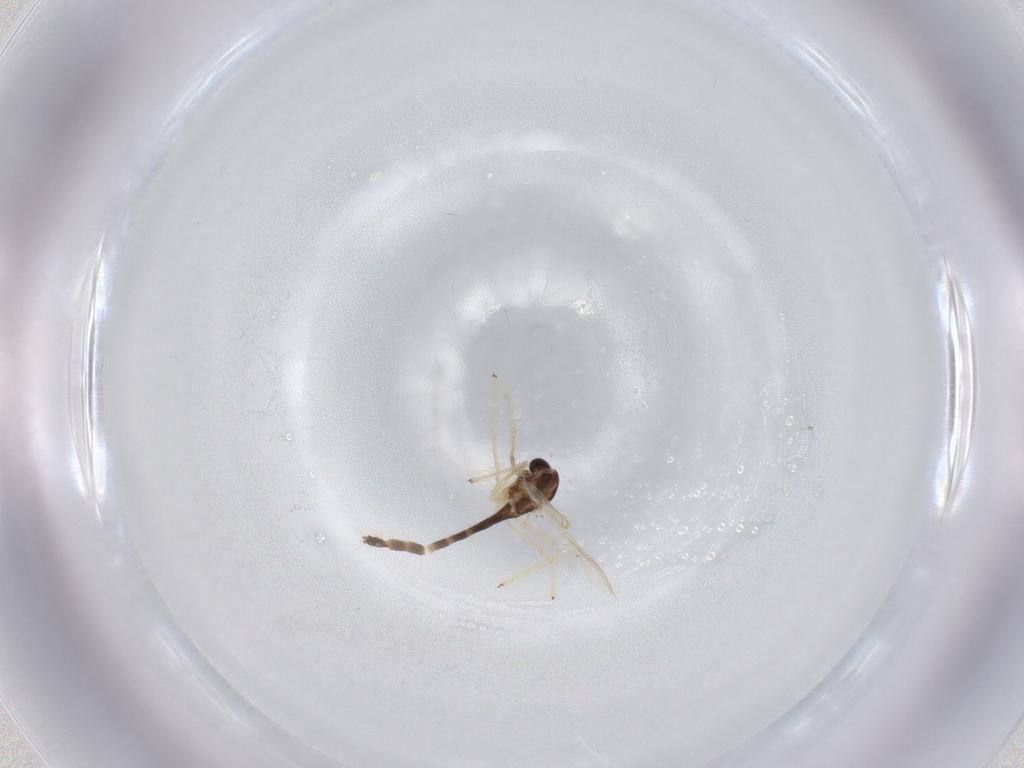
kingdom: Animalia
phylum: Arthropoda
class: Insecta
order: Diptera
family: Chironomidae
